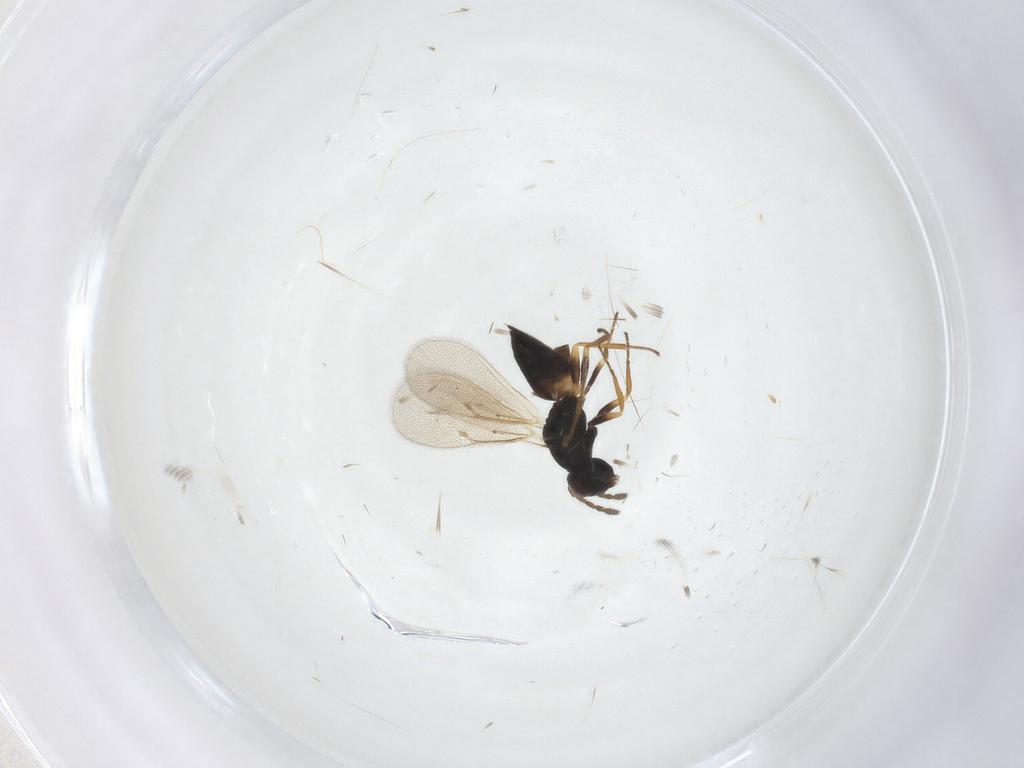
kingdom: Animalia
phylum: Arthropoda
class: Insecta
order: Hymenoptera
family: Eulophidae
